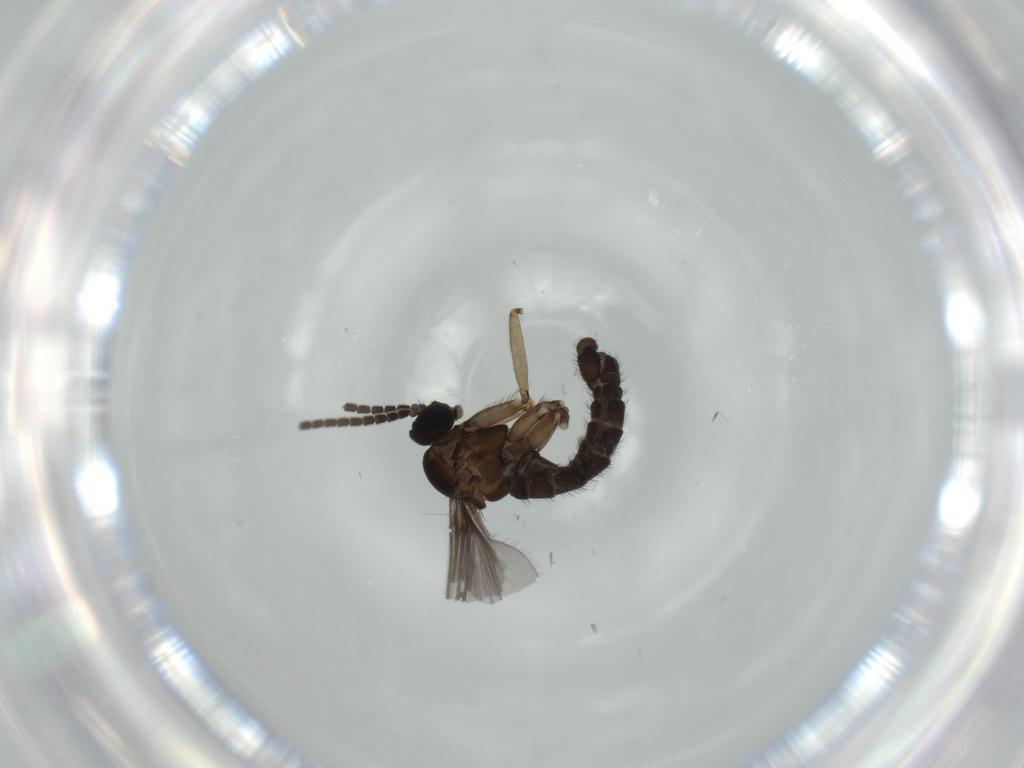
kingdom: Animalia
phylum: Arthropoda
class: Insecta
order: Diptera
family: Sciaridae
